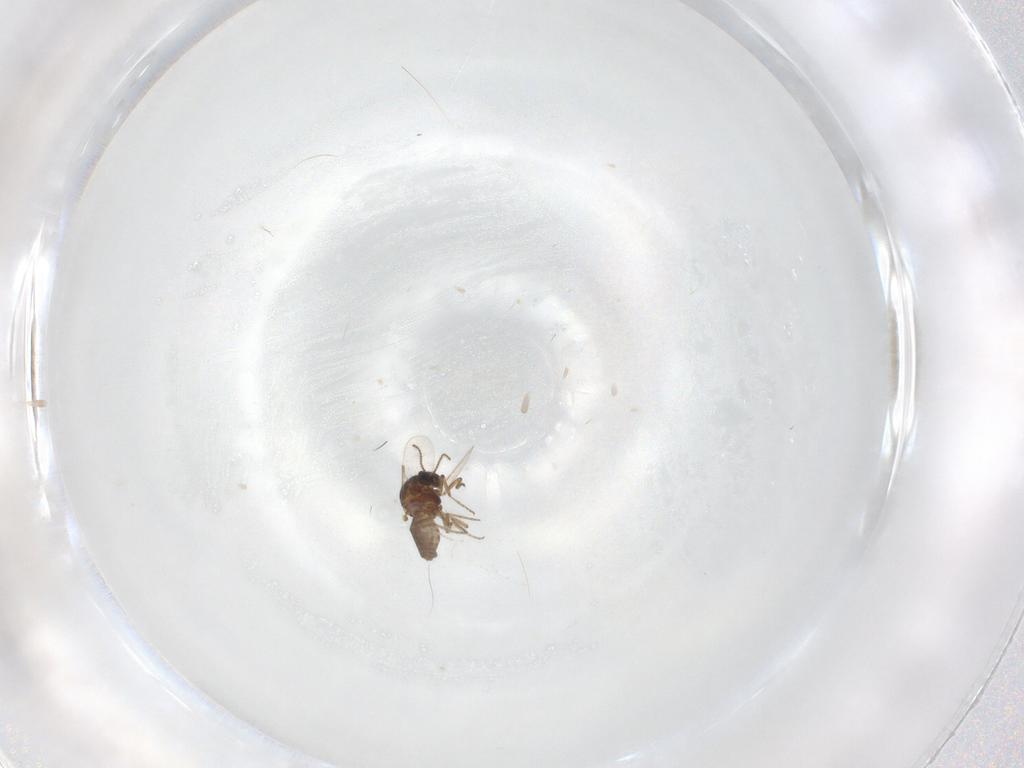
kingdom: Animalia
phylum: Arthropoda
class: Insecta
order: Diptera
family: Ceratopogonidae
